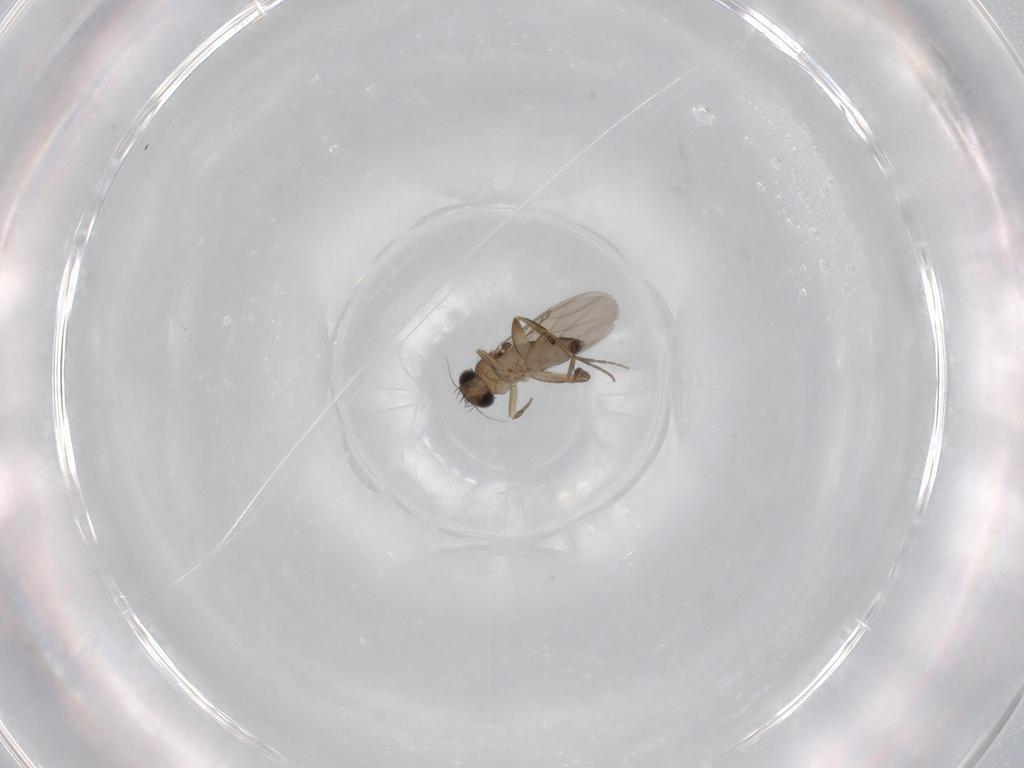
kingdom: Animalia
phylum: Arthropoda
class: Insecta
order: Diptera
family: Phoridae
